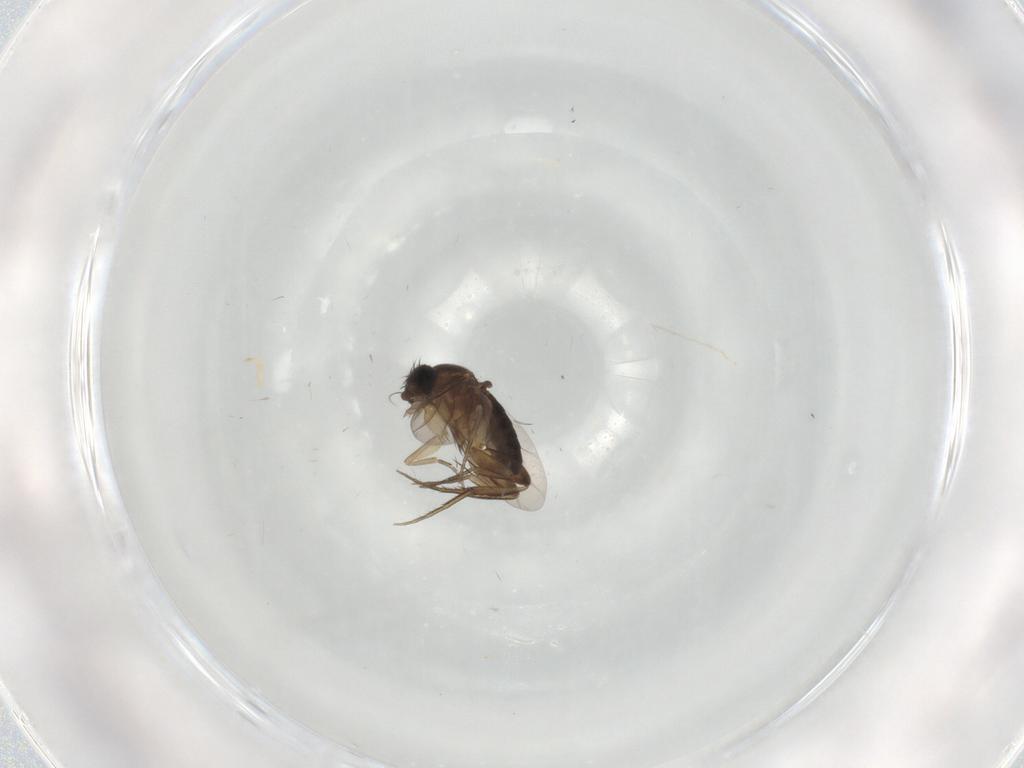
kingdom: Animalia
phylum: Arthropoda
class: Insecta
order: Diptera
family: Phoridae
